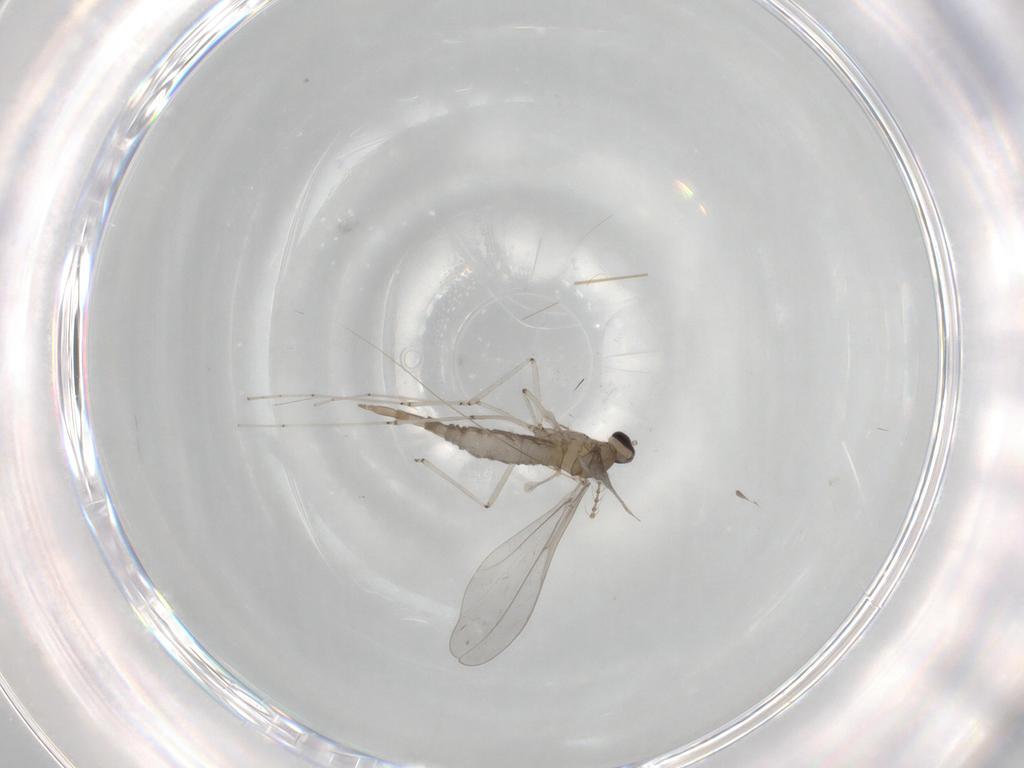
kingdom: Animalia
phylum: Arthropoda
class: Insecta
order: Diptera
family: Ceratopogonidae
